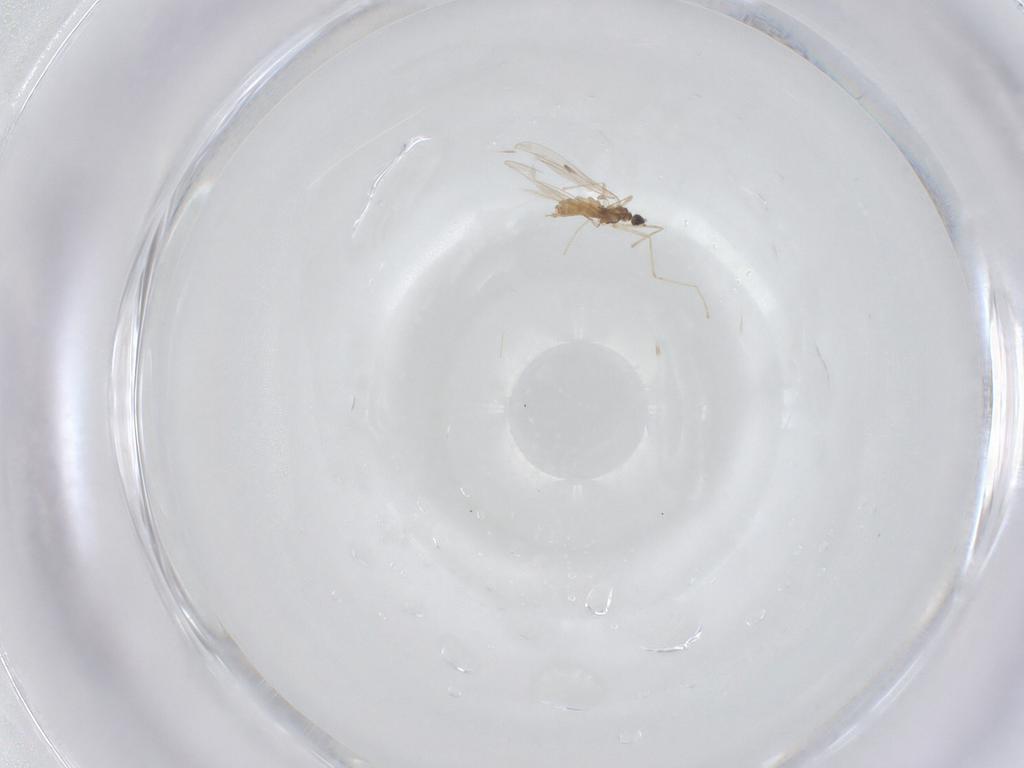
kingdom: Animalia
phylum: Arthropoda
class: Insecta
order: Diptera
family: Cecidomyiidae
